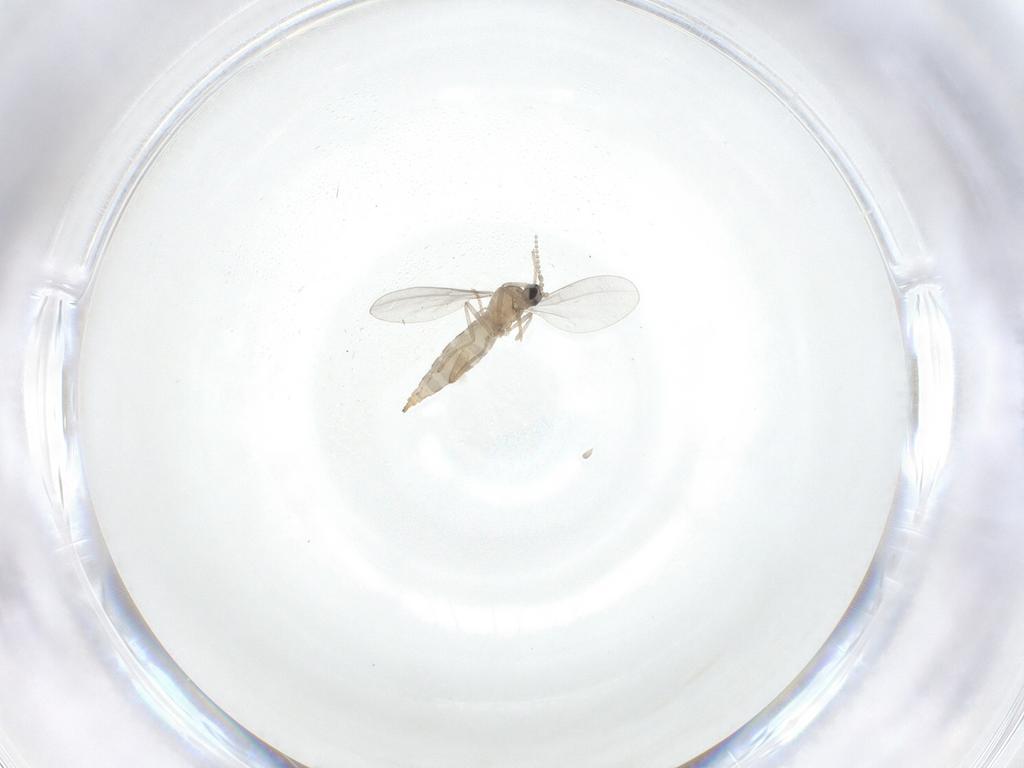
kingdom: Animalia
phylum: Arthropoda
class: Insecta
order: Diptera
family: Cecidomyiidae
